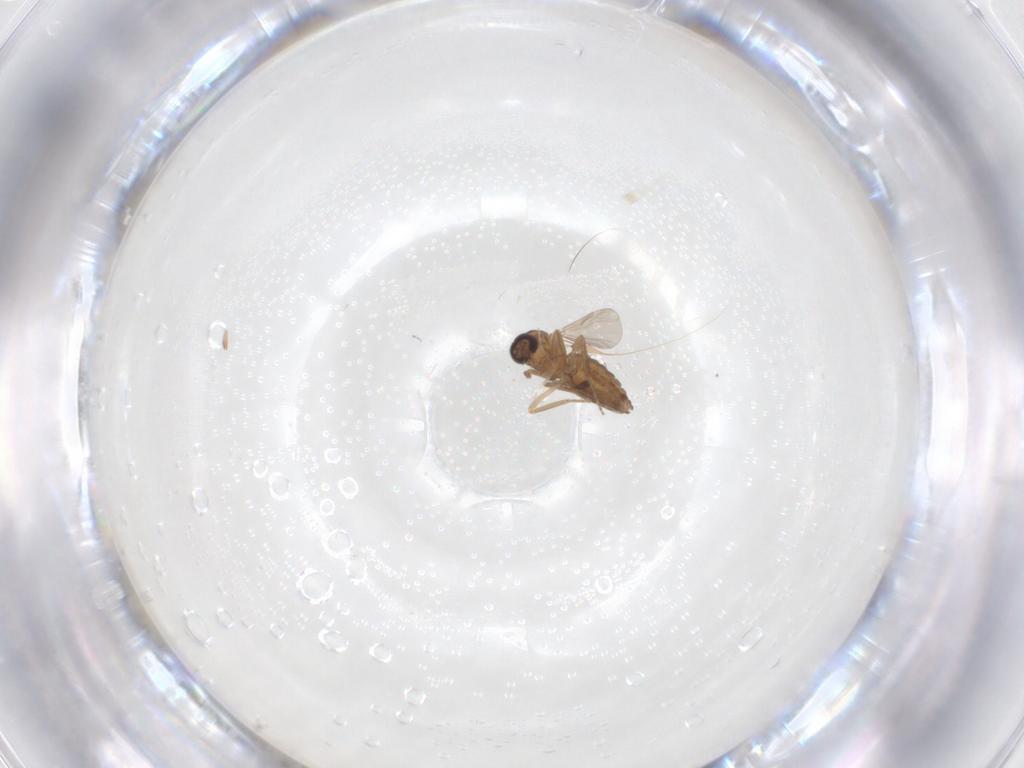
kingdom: Animalia
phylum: Arthropoda
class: Insecta
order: Diptera
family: Ceratopogonidae
